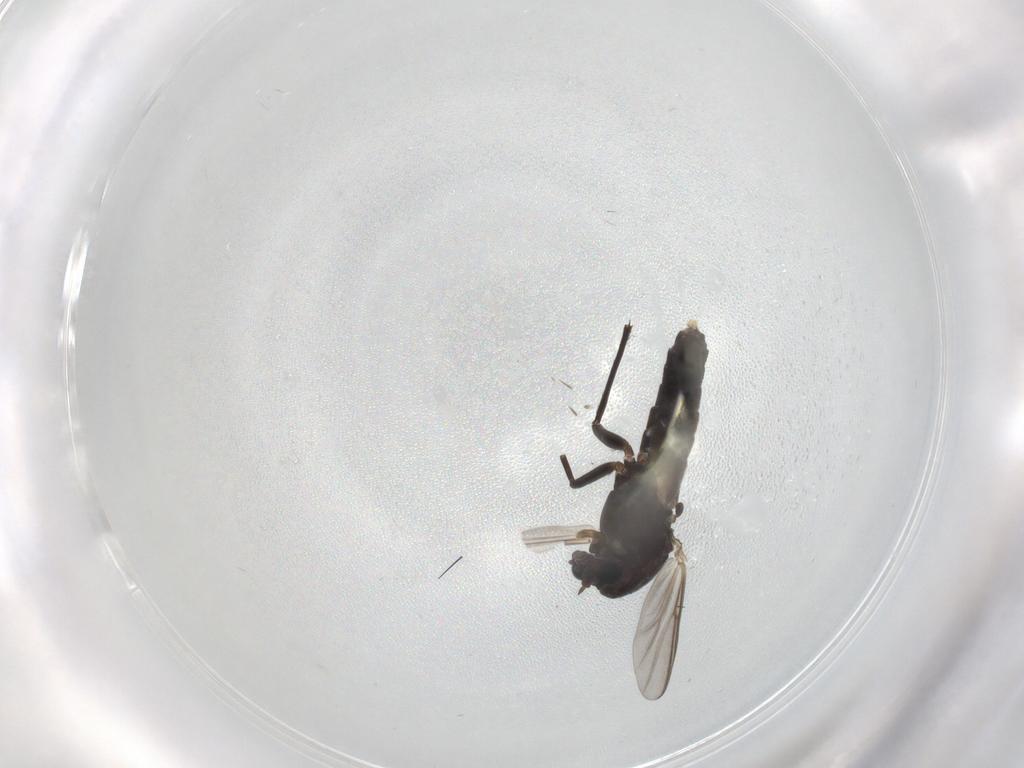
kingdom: Animalia
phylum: Arthropoda
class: Insecta
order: Diptera
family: Chironomidae
